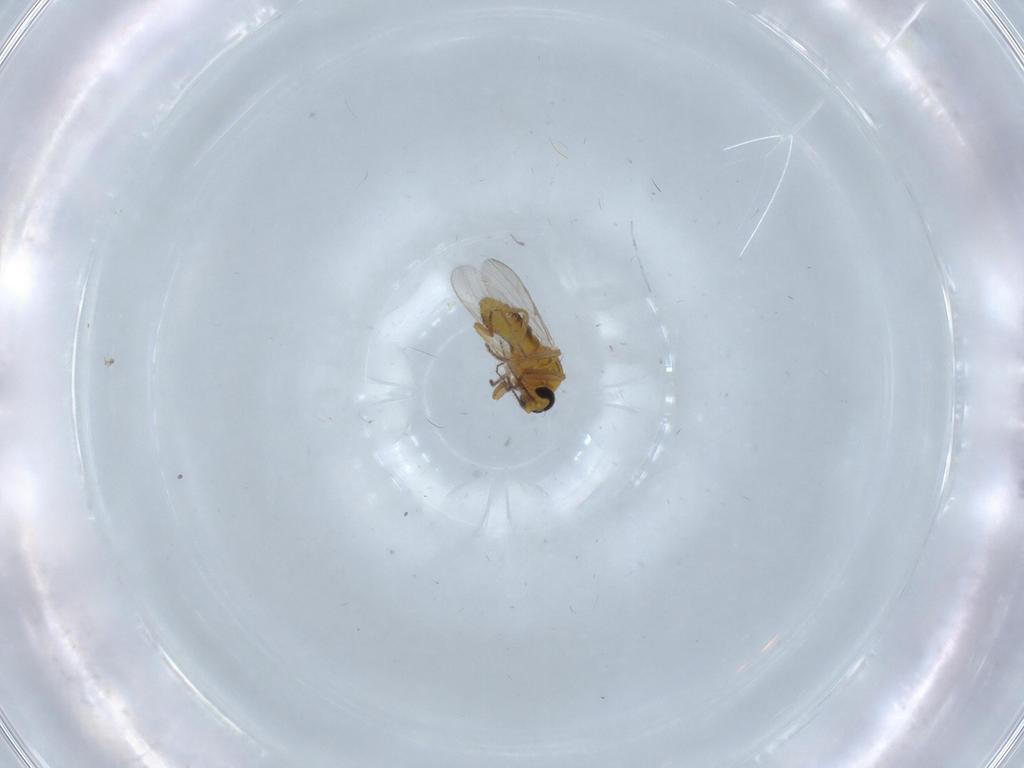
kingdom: Animalia
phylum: Arthropoda
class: Insecta
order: Diptera
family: Ceratopogonidae
